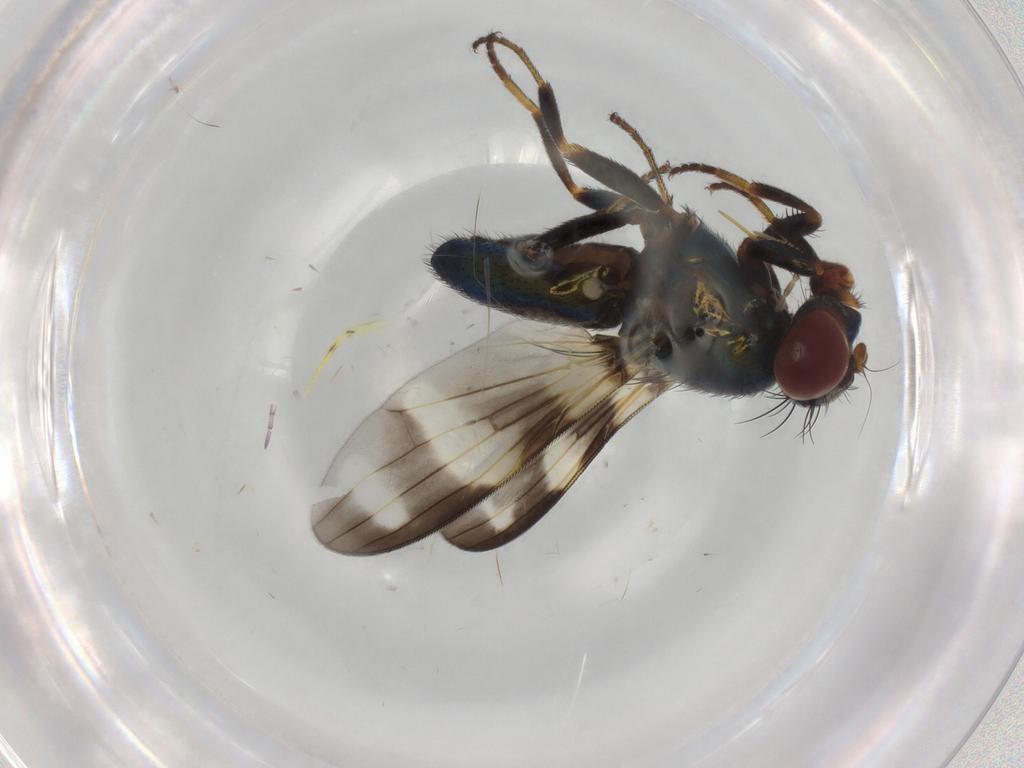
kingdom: Animalia
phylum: Arthropoda
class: Insecta
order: Diptera
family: Ulidiidae
